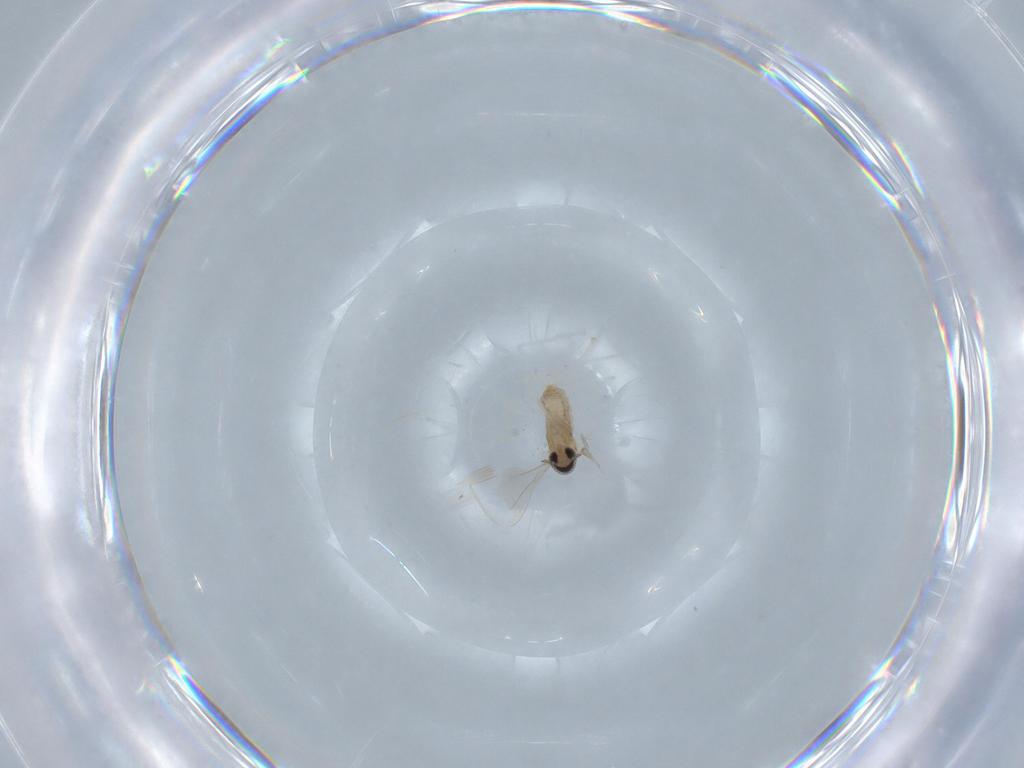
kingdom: Animalia
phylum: Arthropoda
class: Insecta
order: Diptera
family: Cecidomyiidae
